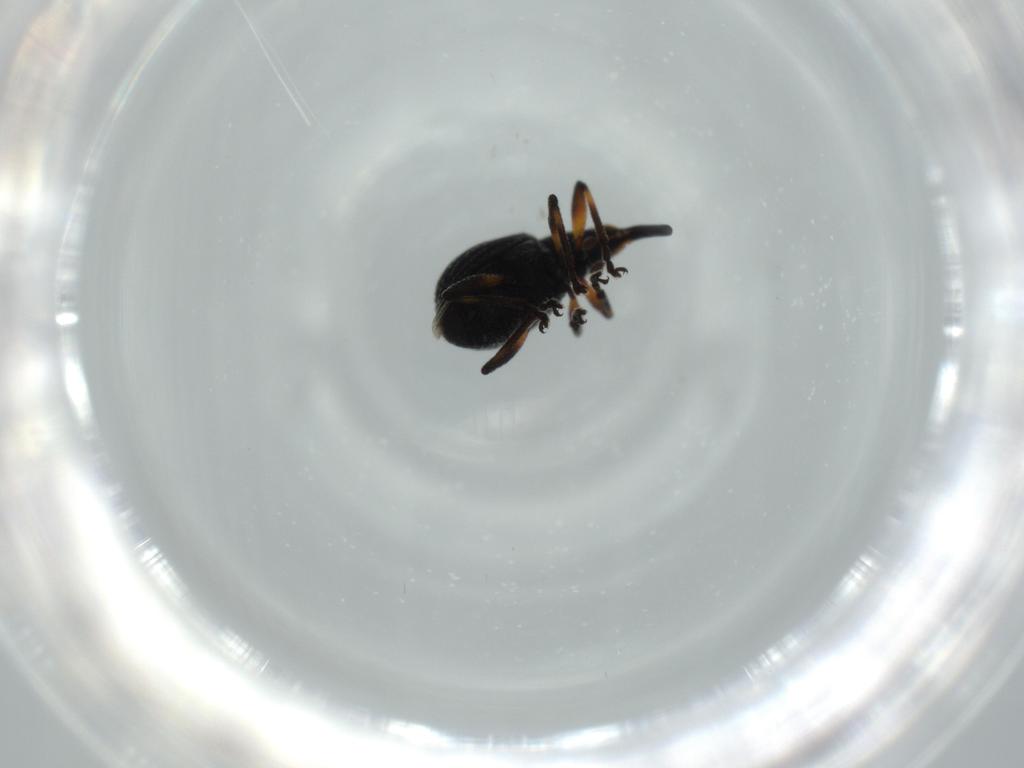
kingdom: Animalia
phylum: Arthropoda
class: Insecta
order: Coleoptera
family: Brentidae
